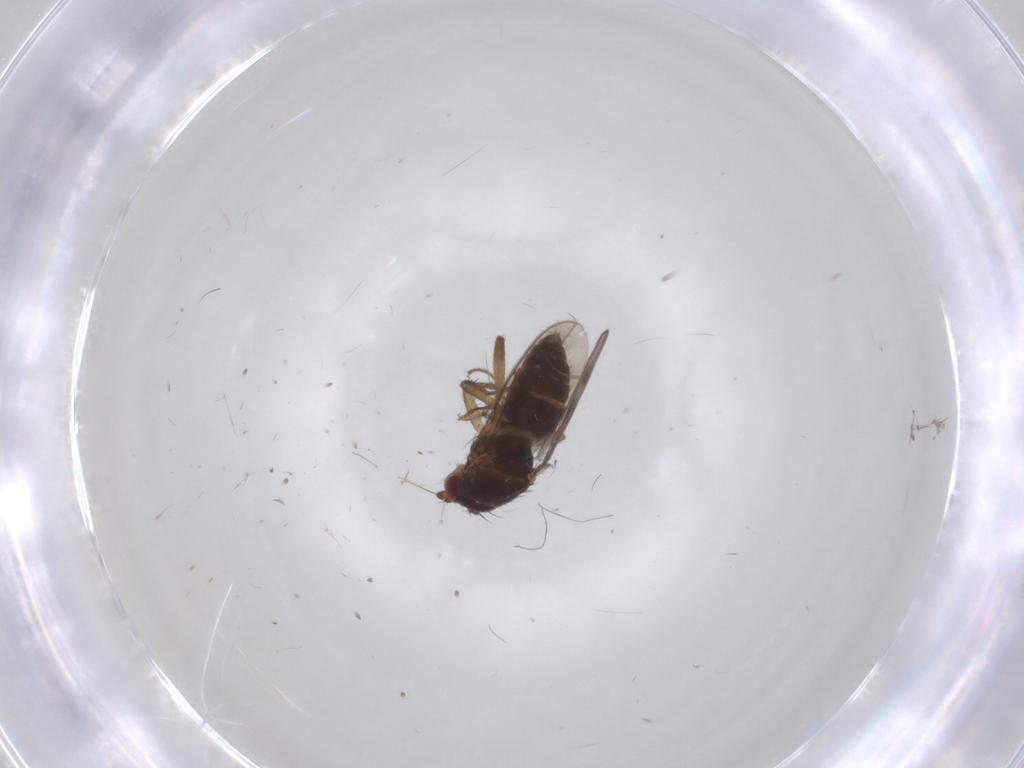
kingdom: Animalia
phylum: Arthropoda
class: Insecta
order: Diptera
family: Sphaeroceridae
